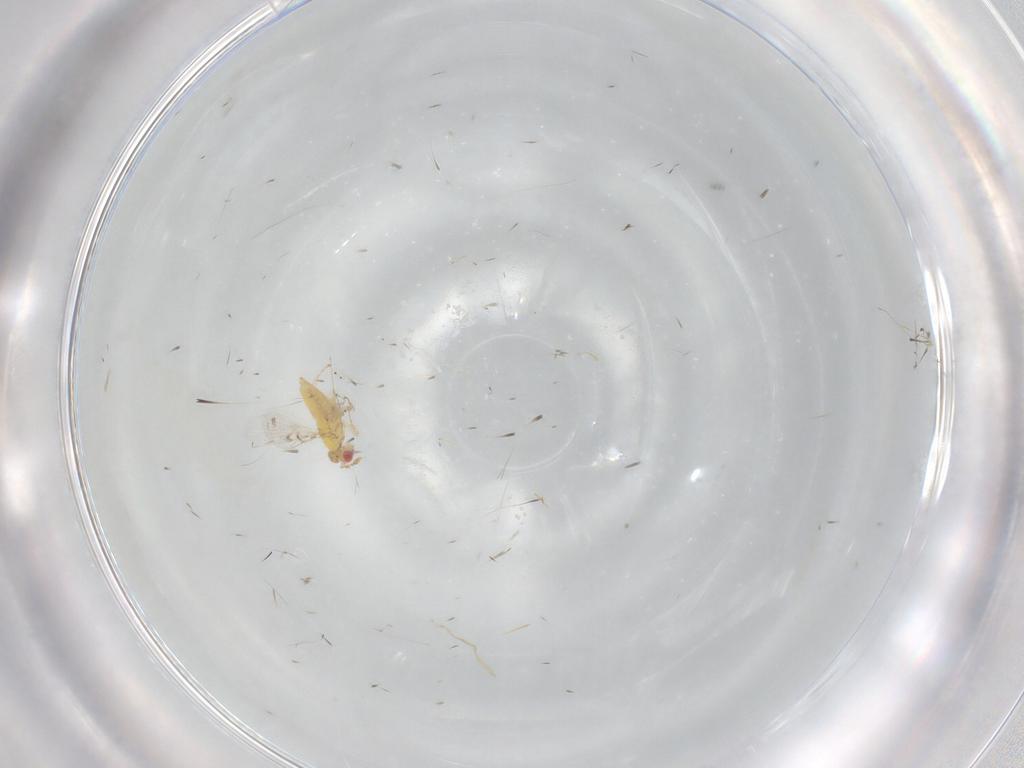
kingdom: Animalia
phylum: Arthropoda
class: Insecta
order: Hymenoptera
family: Trichogrammatidae
